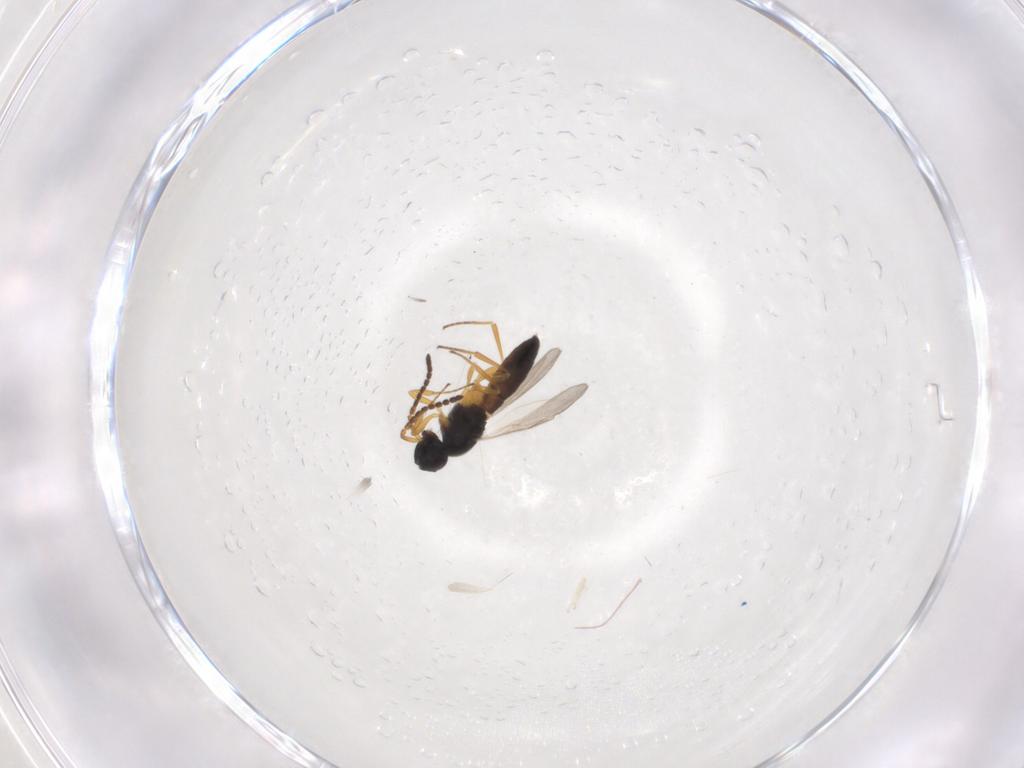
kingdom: Animalia
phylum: Arthropoda
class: Insecta
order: Hymenoptera
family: Scelionidae
